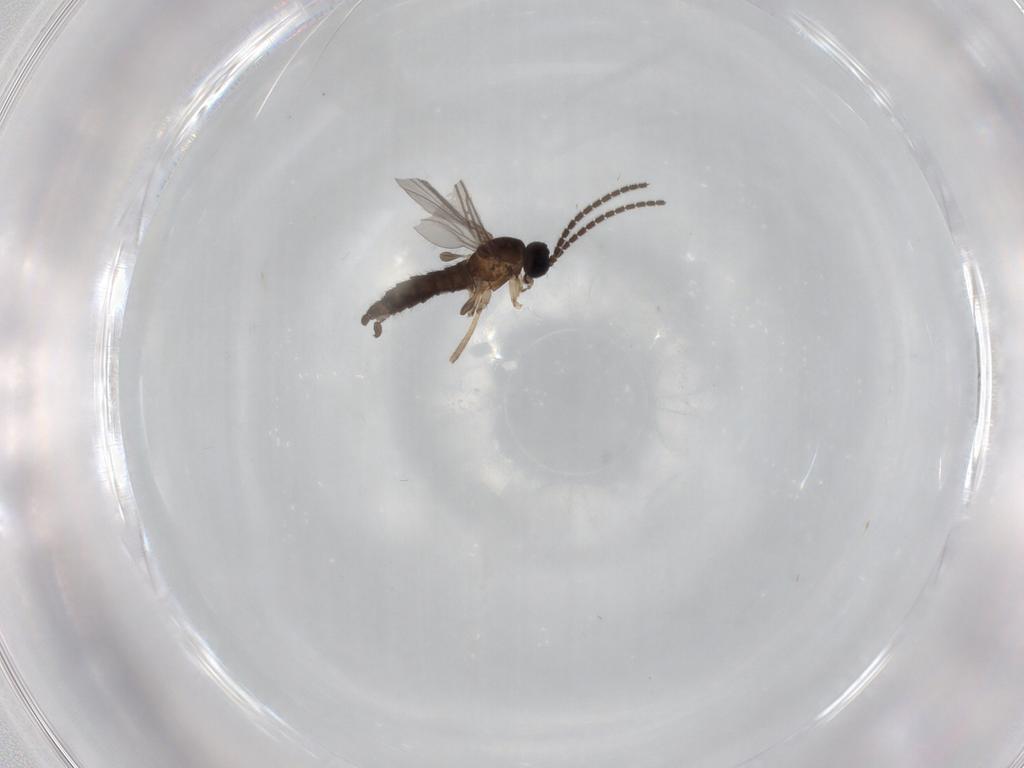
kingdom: Animalia
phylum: Arthropoda
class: Insecta
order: Diptera
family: Sciaridae
